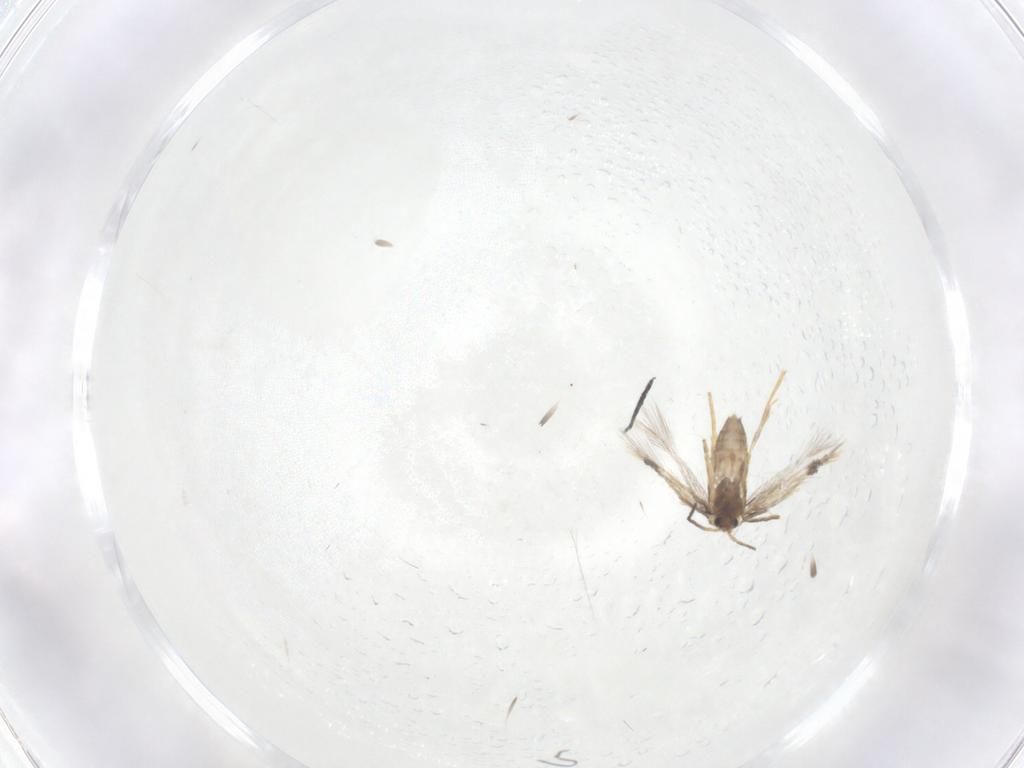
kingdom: Animalia
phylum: Arthropoda
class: Insecta
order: Lepidoptera
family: Nepticulidae
